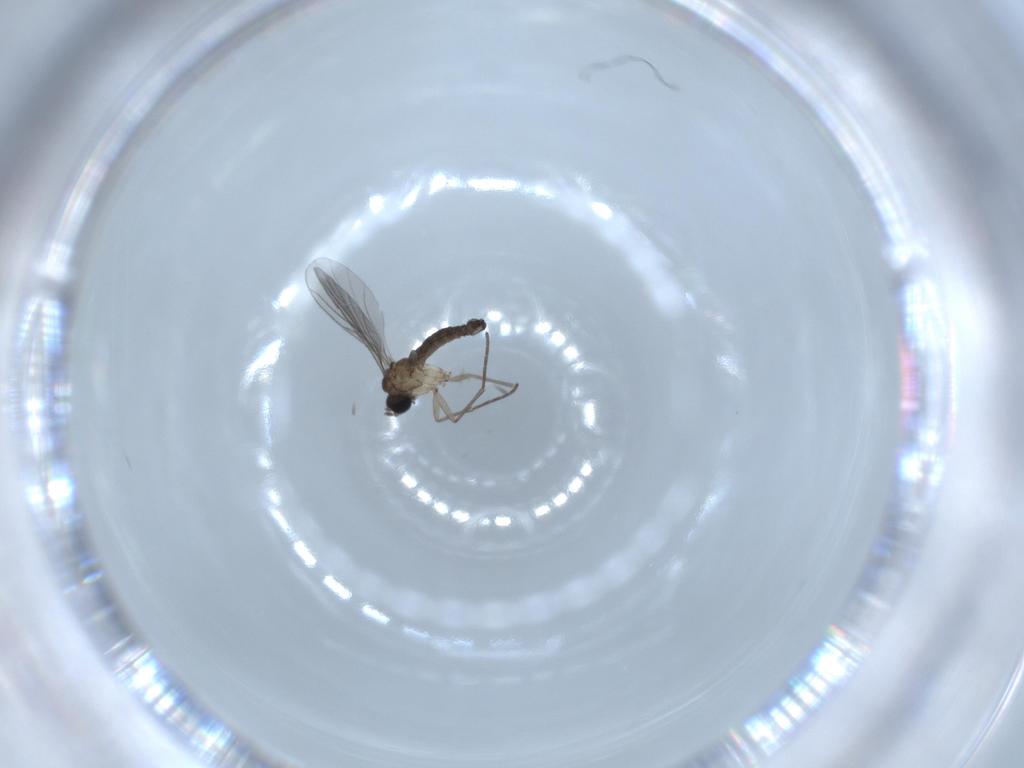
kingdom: Animalia
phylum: Arthropoda
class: Insecta
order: Diptera
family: Sciaridae
